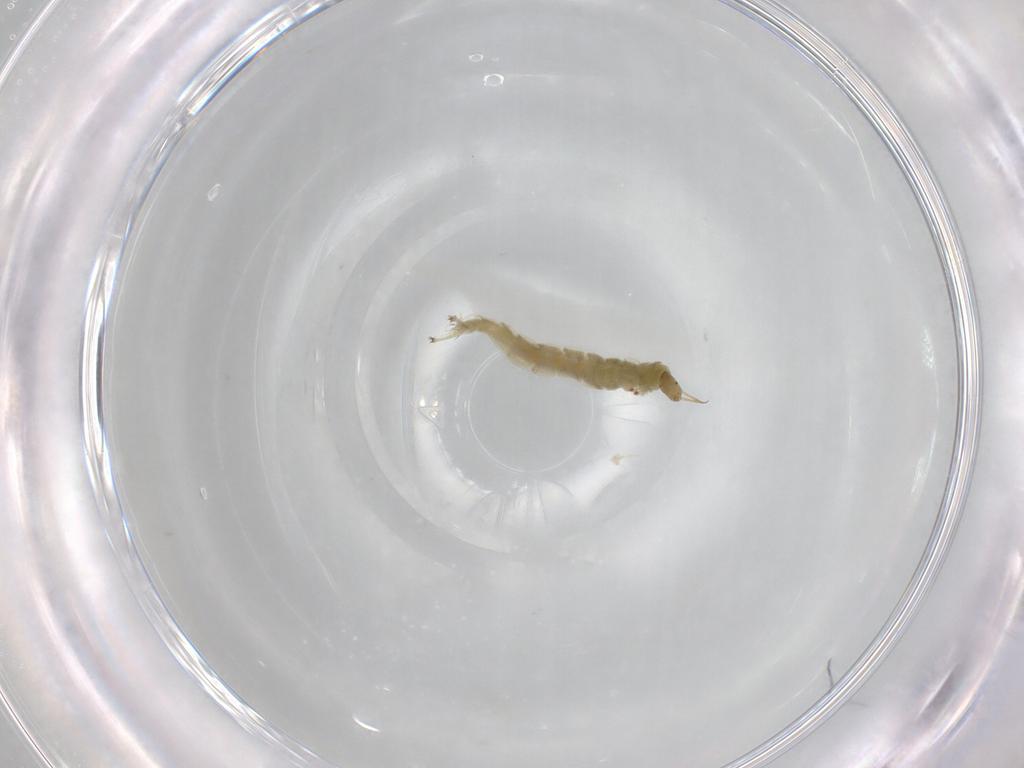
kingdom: Animalia
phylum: Arthropoda
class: Insecta
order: Diptera
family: Chironomidae
